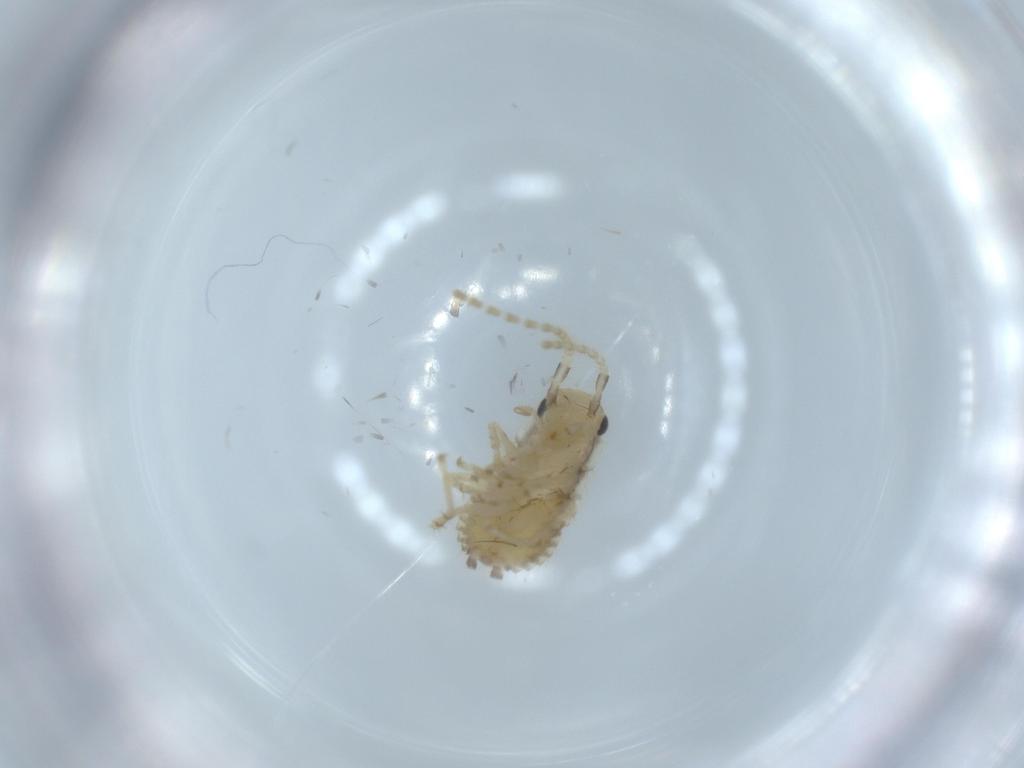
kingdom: Animalia
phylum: Arthropoda
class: Insecta
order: Blattodea
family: Ectobiidae
